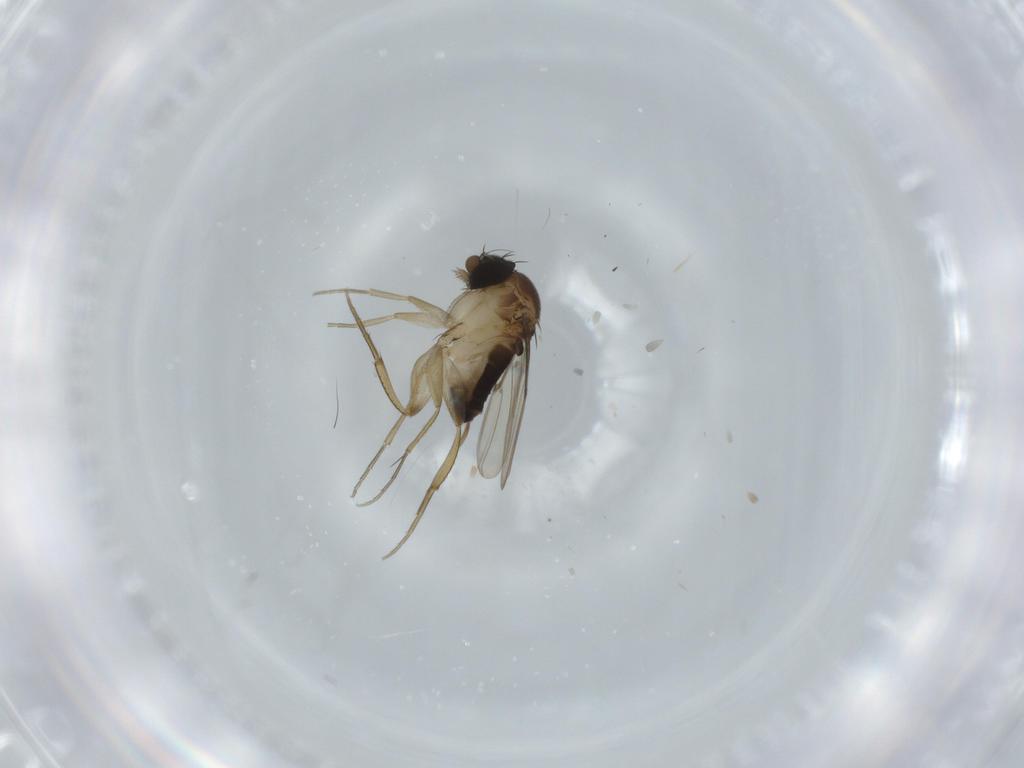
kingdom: Animalia
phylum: Arthropoda
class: Insecta
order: Diptera
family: Phoridae
